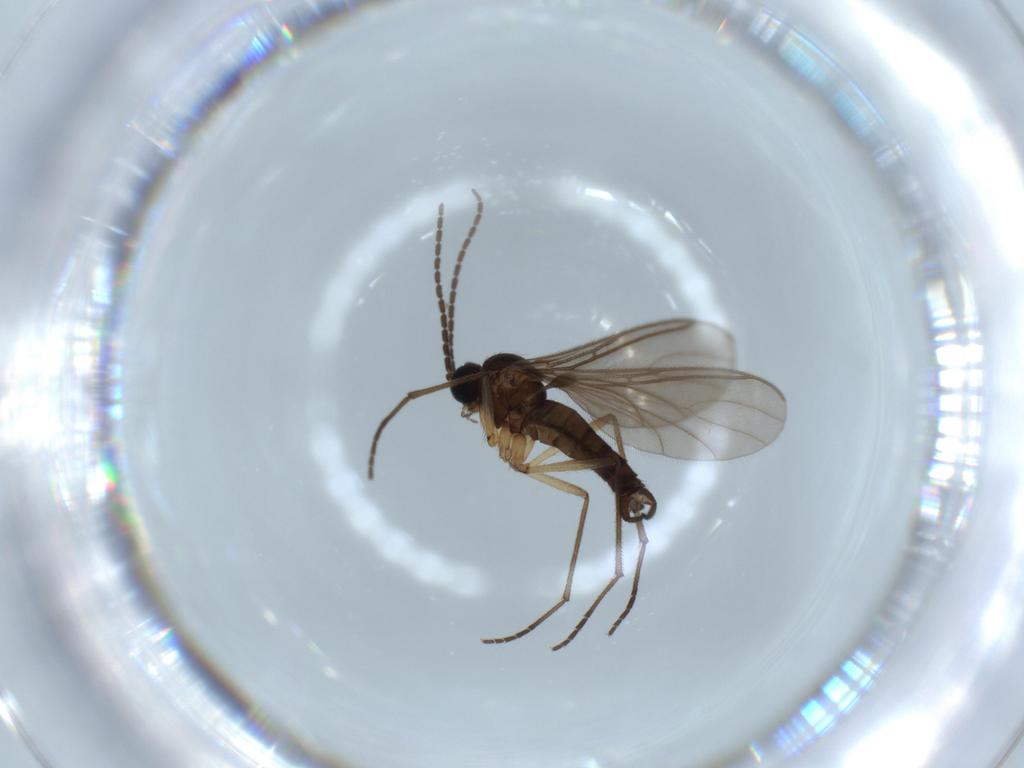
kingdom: Animalia
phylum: Arthropoda
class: Insecta
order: Diptera
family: Sciaridae
